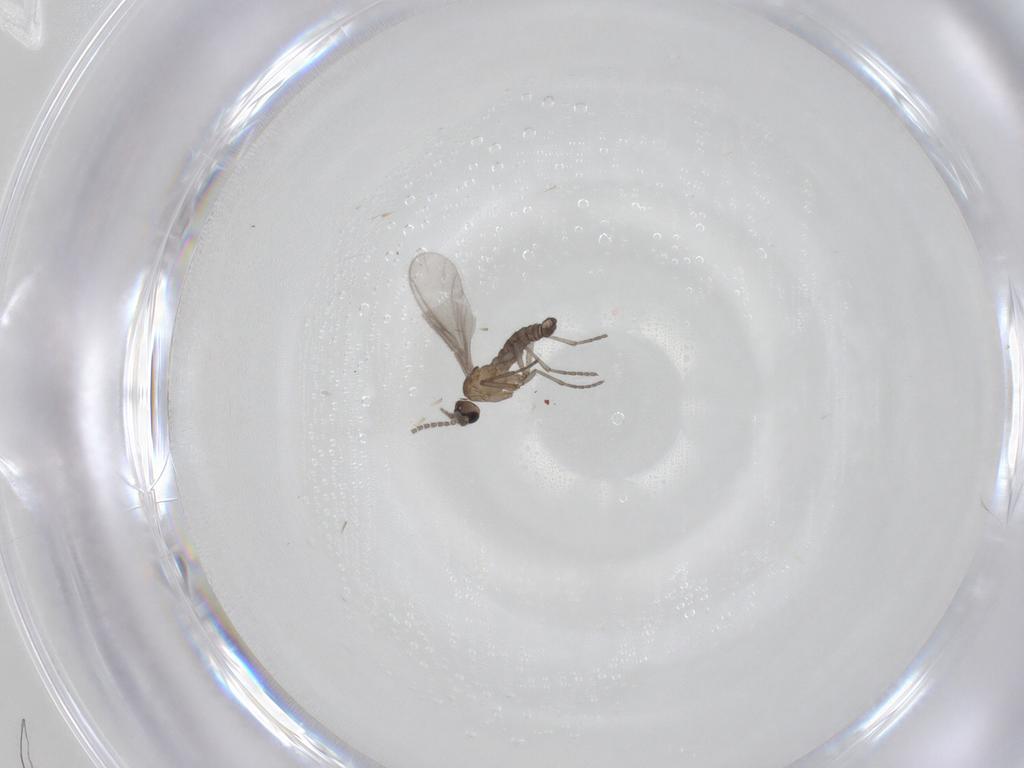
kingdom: Animalia
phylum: Arthropoda
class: Insecta
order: Diptera
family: Sciaridae
